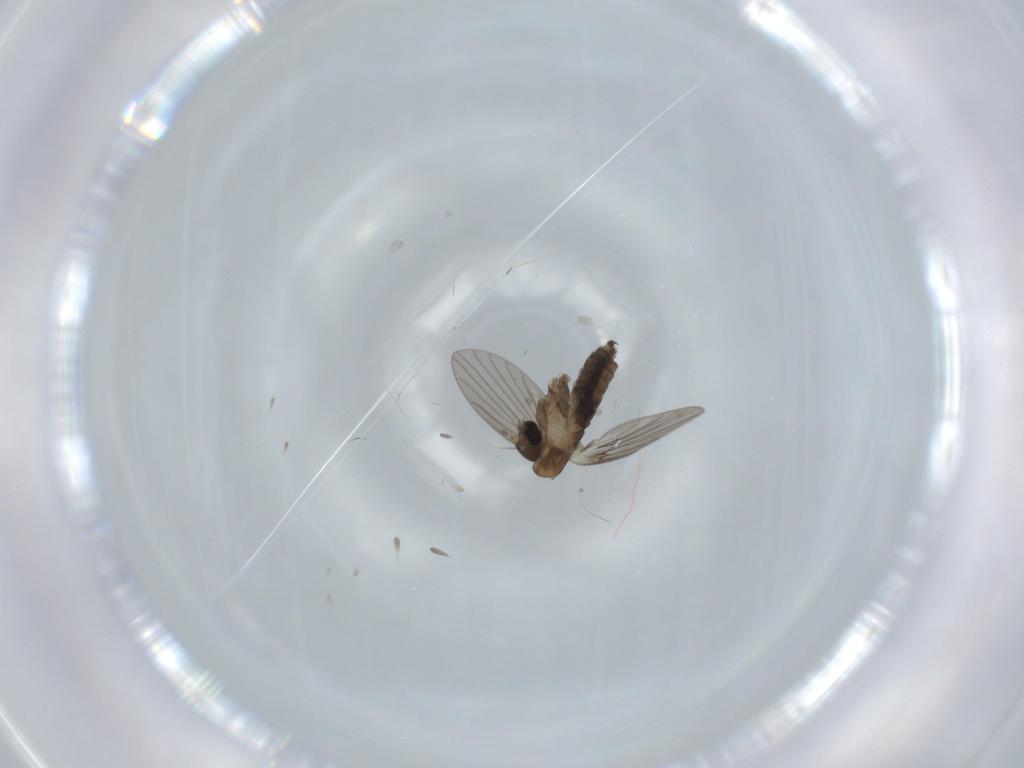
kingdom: Animalia
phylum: Arthropoda
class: Insecta
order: Diptera
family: Psychodidae
